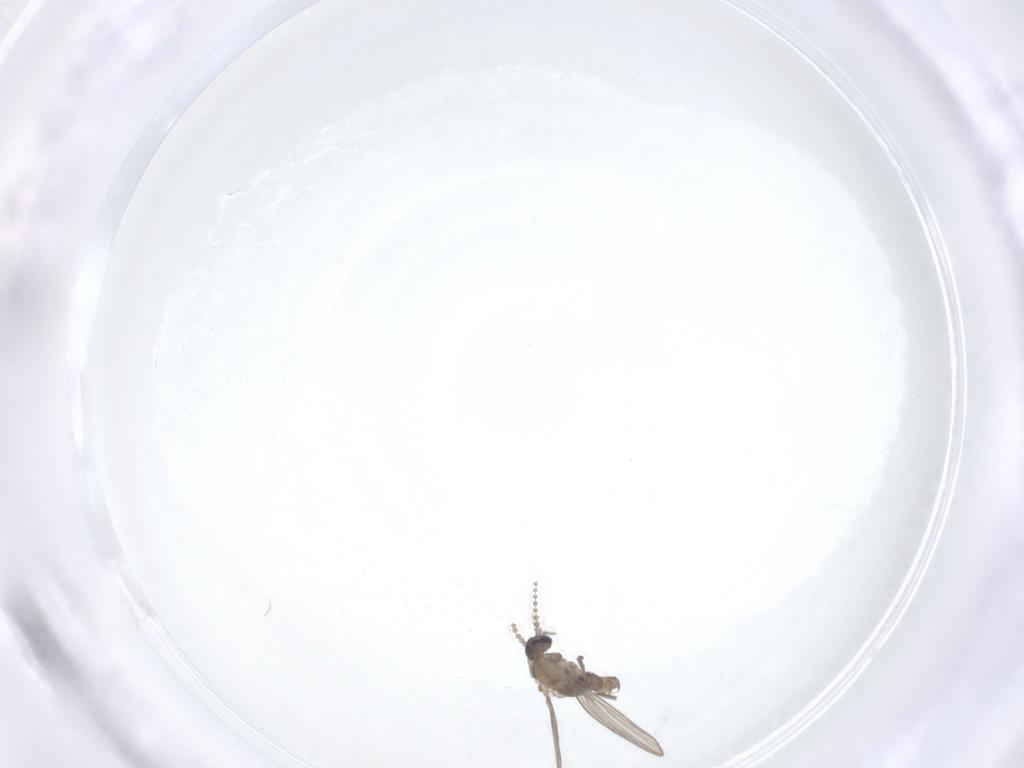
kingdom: Animalia
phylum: Arthropoda
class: Insecta
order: Diptera
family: Psychodidae
